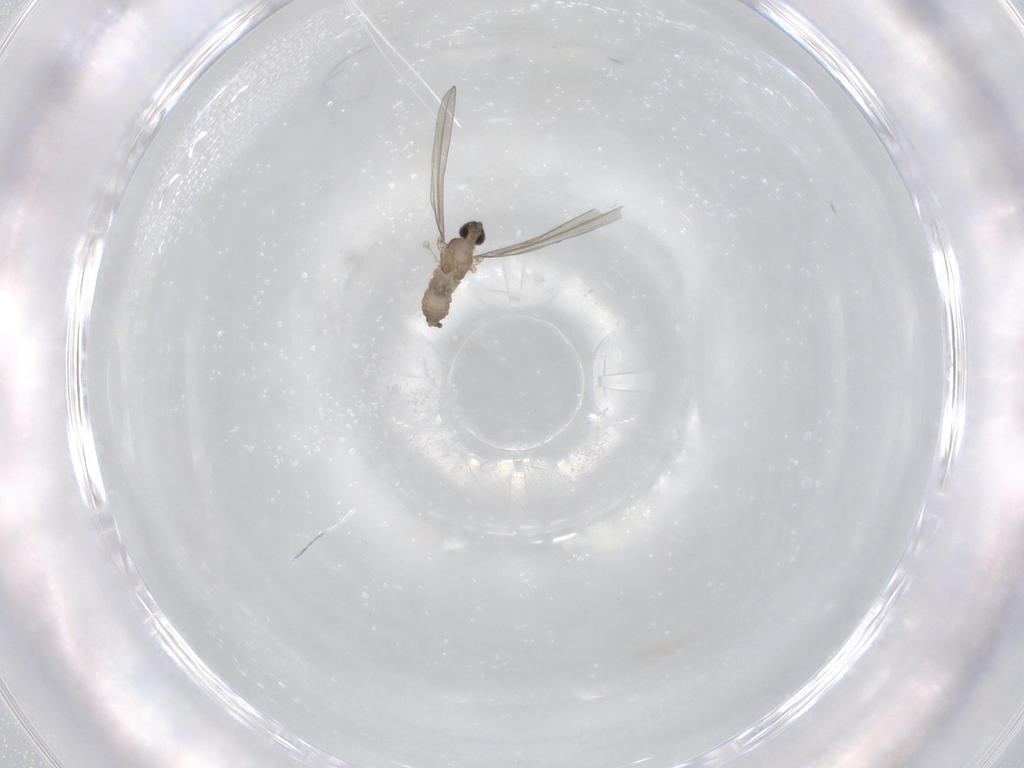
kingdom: Animalia
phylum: Arthropoda
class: Insecta
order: Diptera
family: Cecidomyiidae
